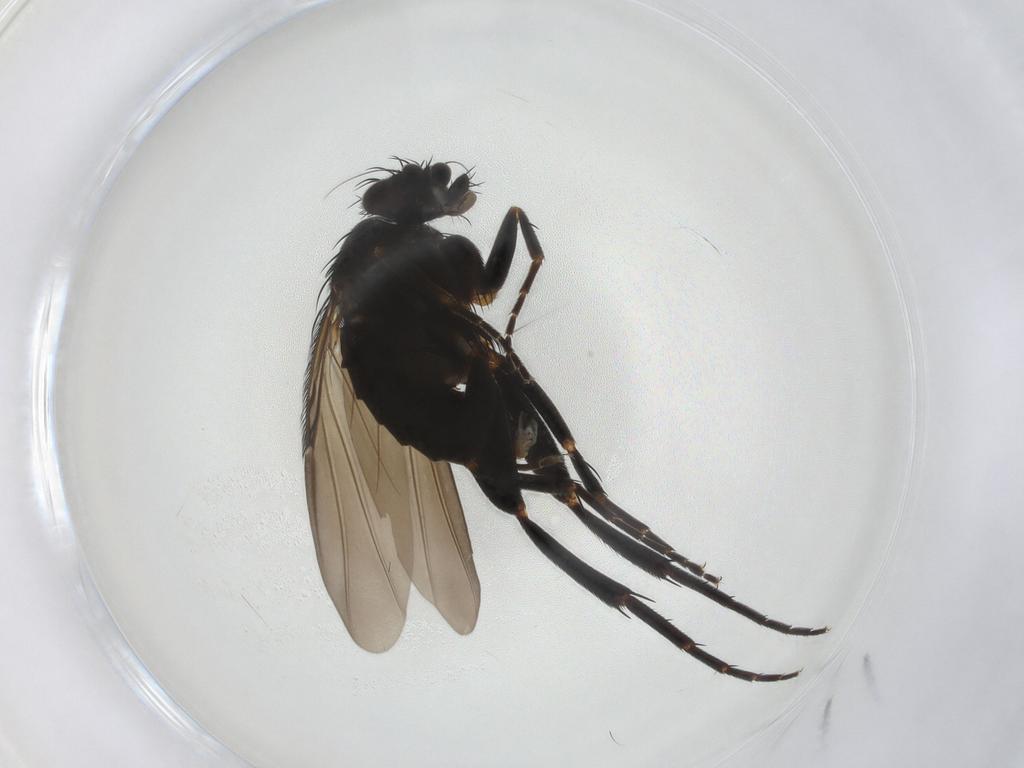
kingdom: Animalia
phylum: Arthropoda
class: Insecta
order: Diptera
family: Phoridae
